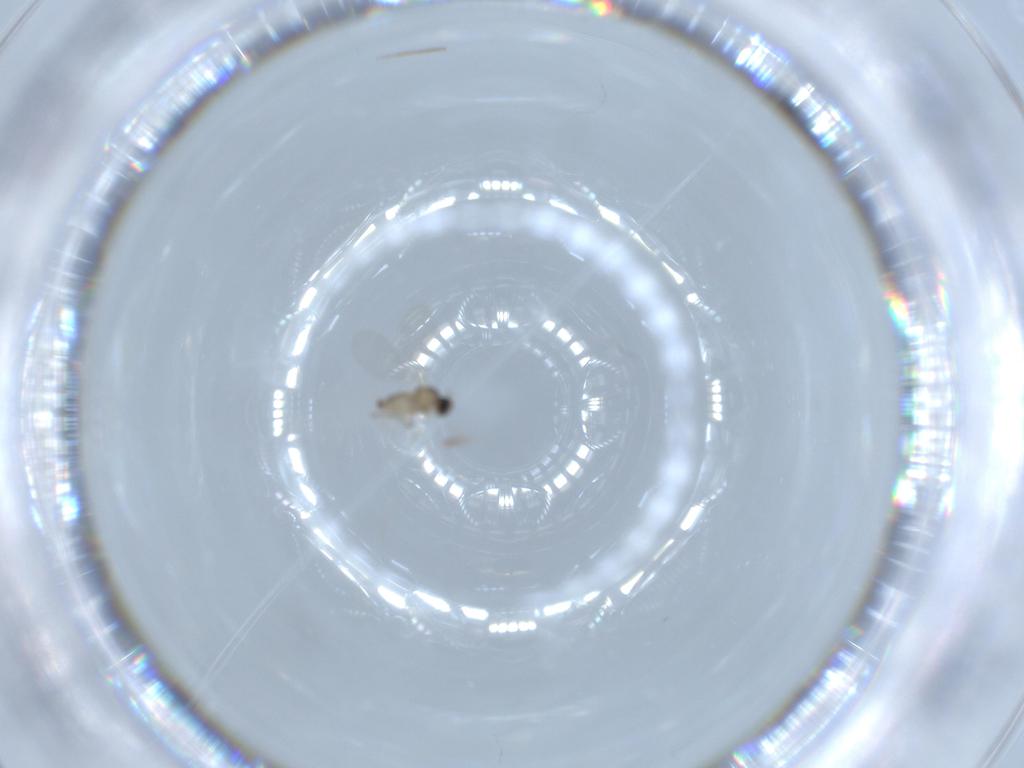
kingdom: Animalia
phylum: Arthropoda
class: Insecta
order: Diptera
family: Cecidomyiidae
